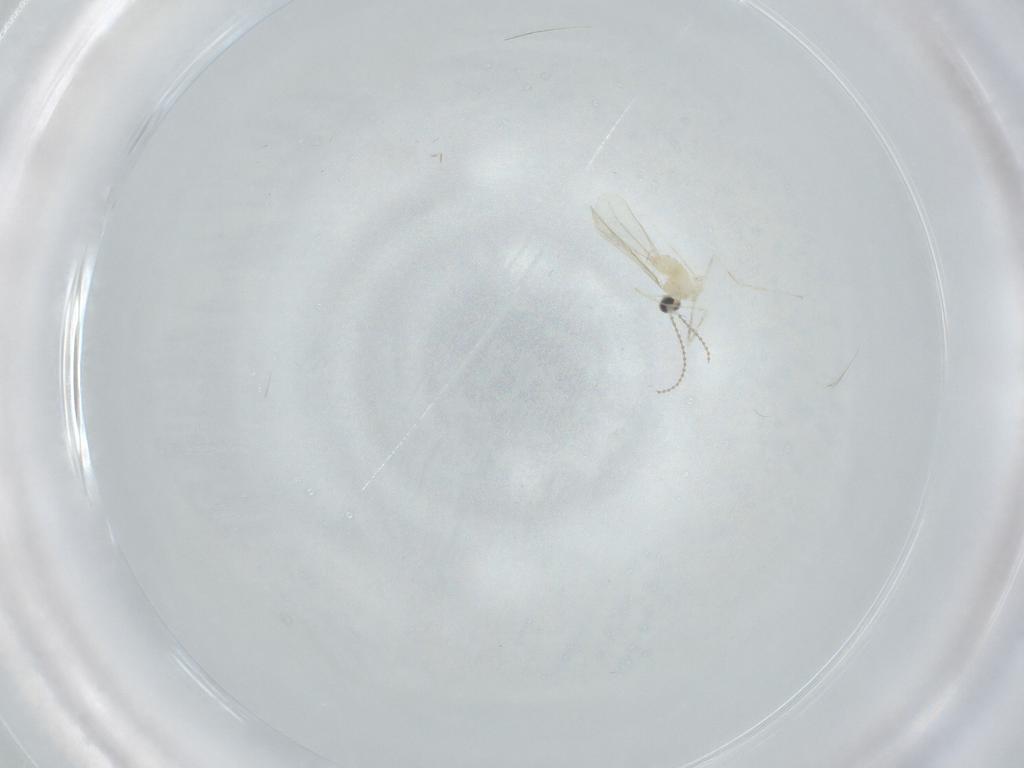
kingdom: Animalia
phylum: Arthropoda
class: Insecta
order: Diptera
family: Cecidomyiidae
